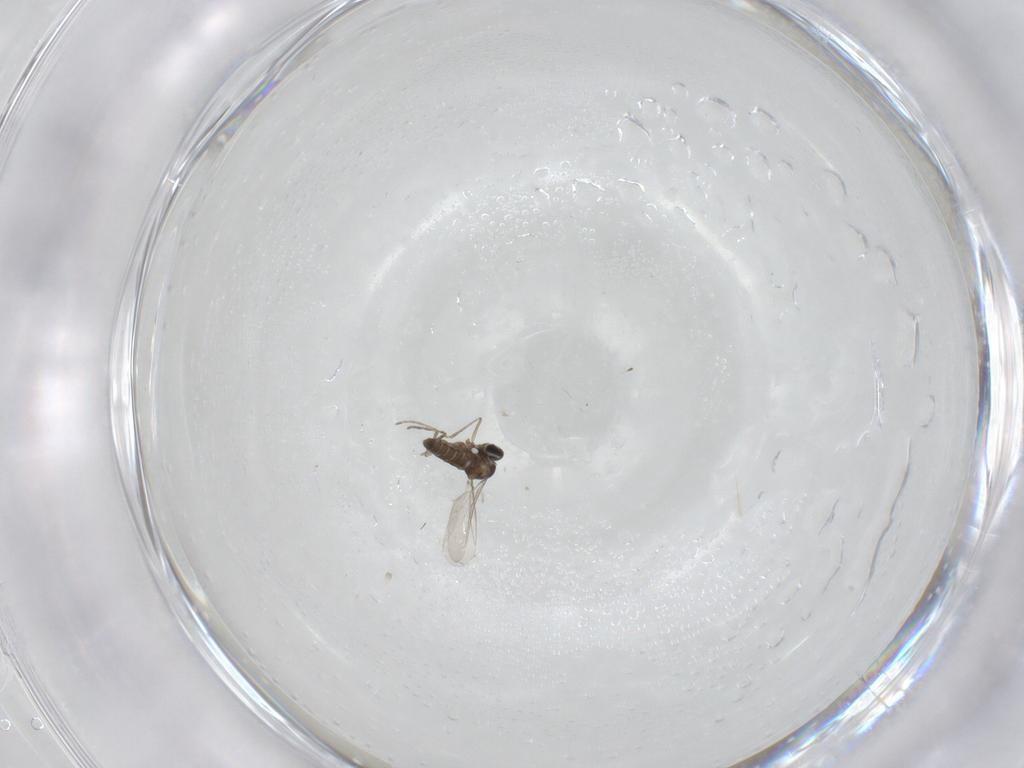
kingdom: Animalia
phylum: Arthropoda
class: Insecta
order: Diptera
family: Cecidomyiidae
